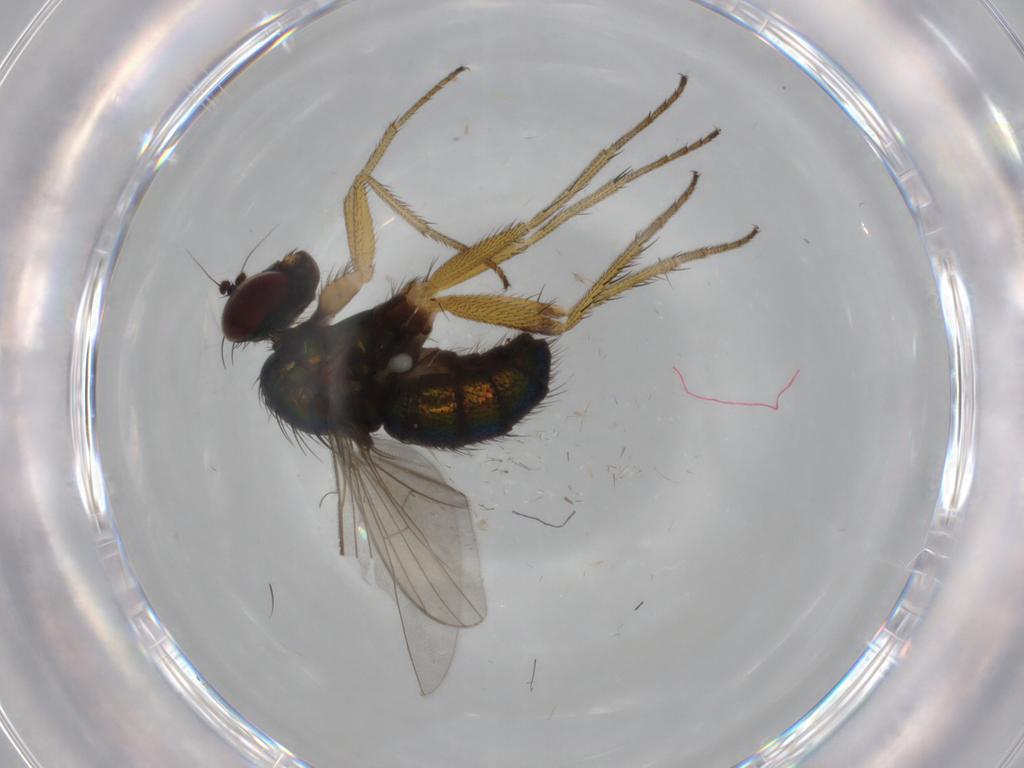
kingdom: Animalia
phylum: Arthropoda
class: Insecta
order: Diptera
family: Dolichopodidae
